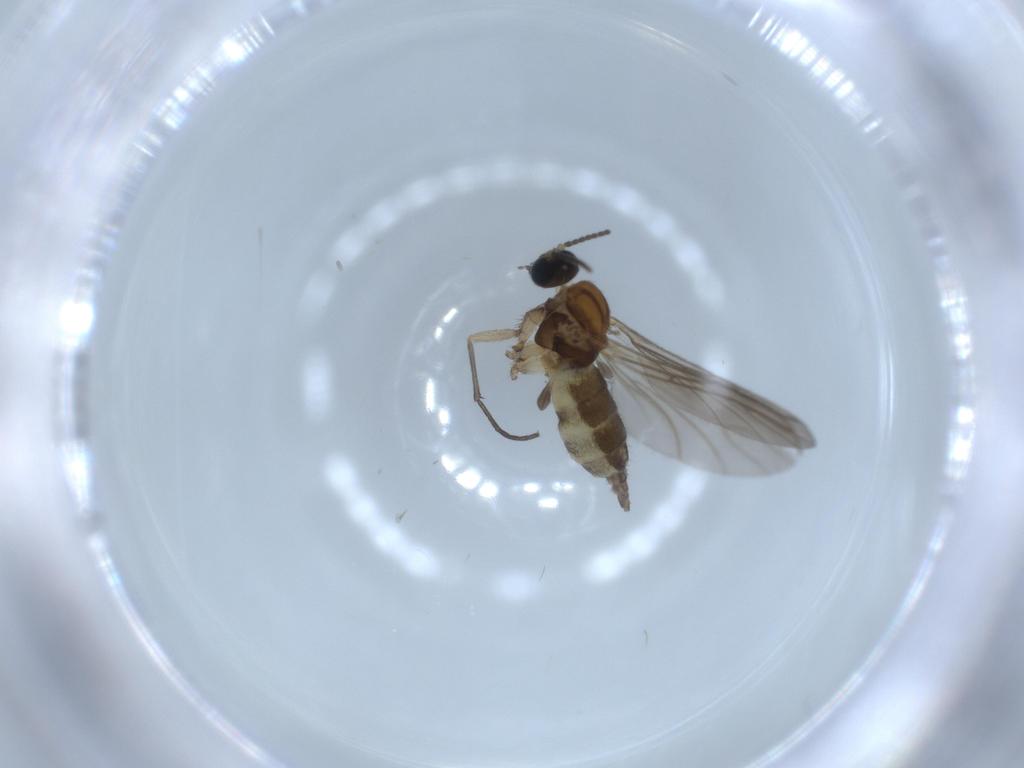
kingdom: Animalia
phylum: Arthropoda
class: Insecta
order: Diptera
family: Sciaridae
